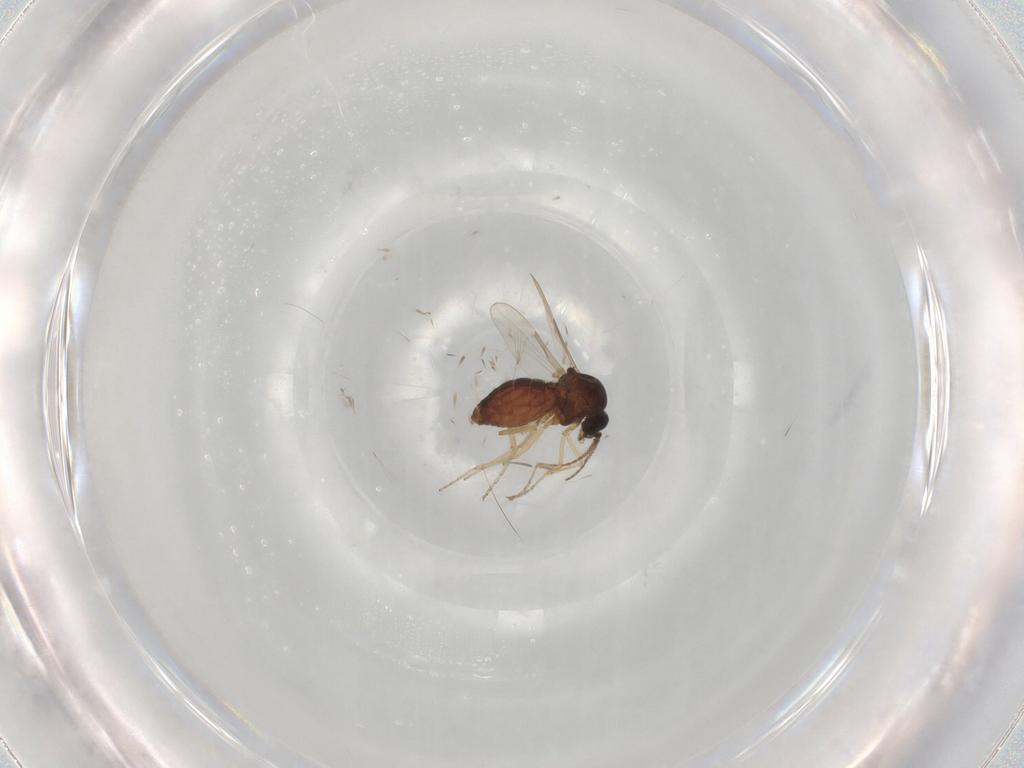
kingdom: Animalia
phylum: Arthropoda
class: Insecta
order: Diptera
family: Ceratopogonidae
